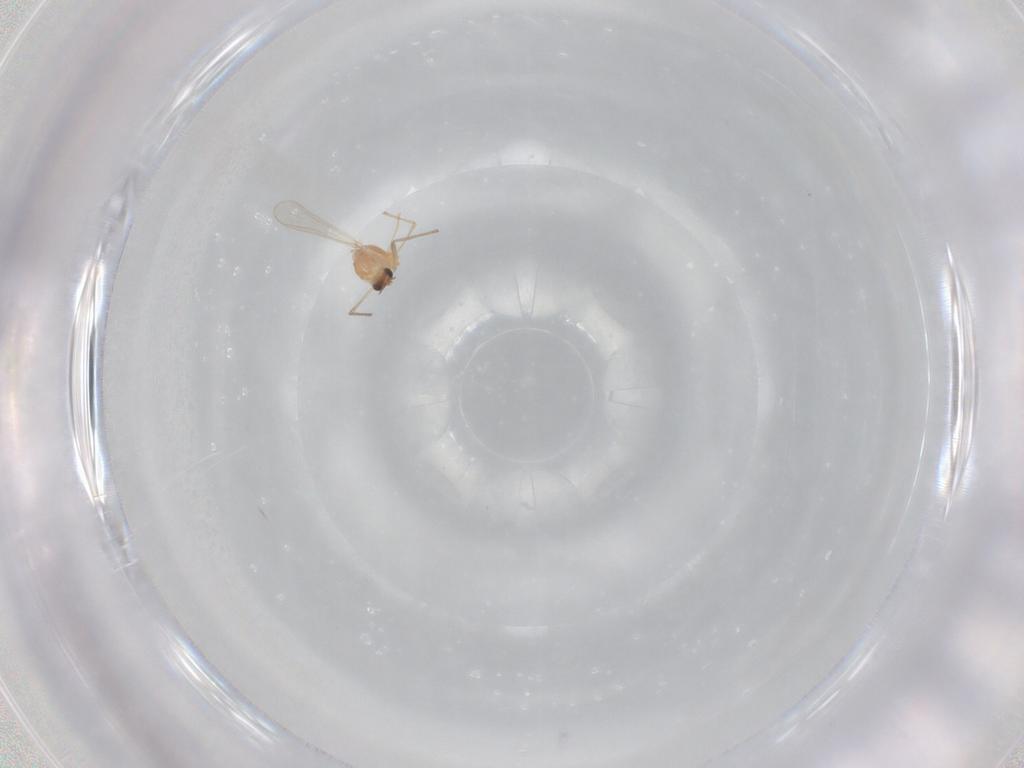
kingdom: Animalia
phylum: Arthropoda
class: Insecta
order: Diptera
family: Chironomidae
